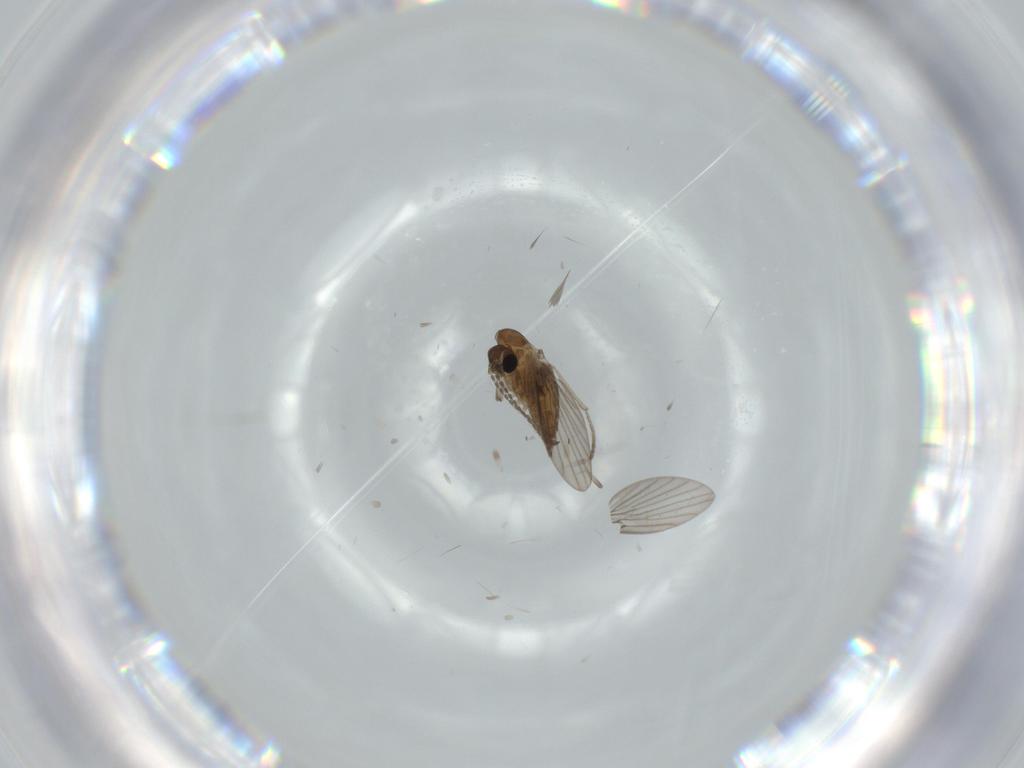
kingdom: Animalia
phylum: Arthropoda
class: Insecta
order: Diptera
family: Psychodidae
